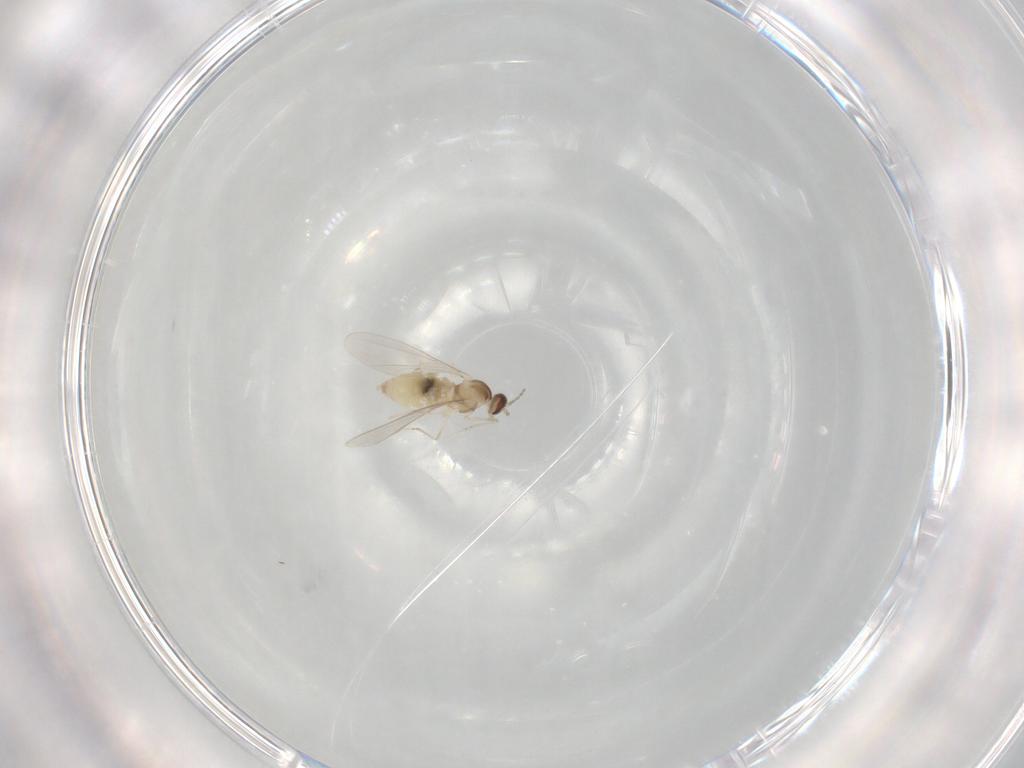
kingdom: Animalia
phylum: Arthropoda
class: Insecta
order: Diptera
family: Cecidomyiidae
